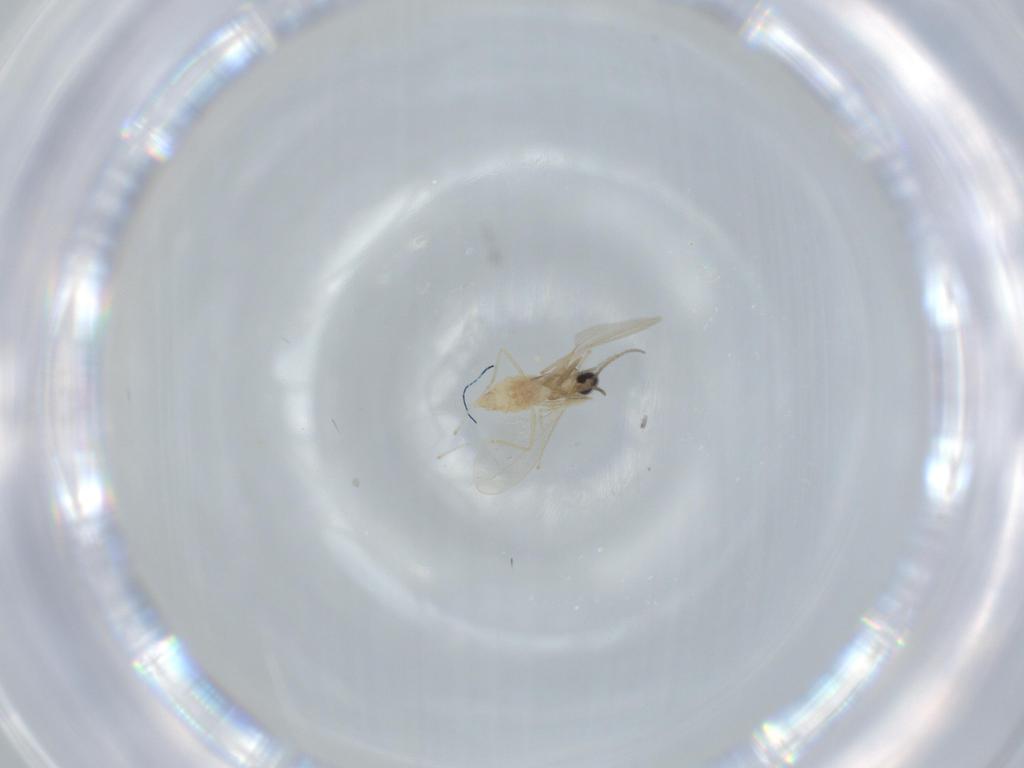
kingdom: Animalia
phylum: Arthropoda
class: Insecta
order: Diptera
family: Cecidomyiidae
